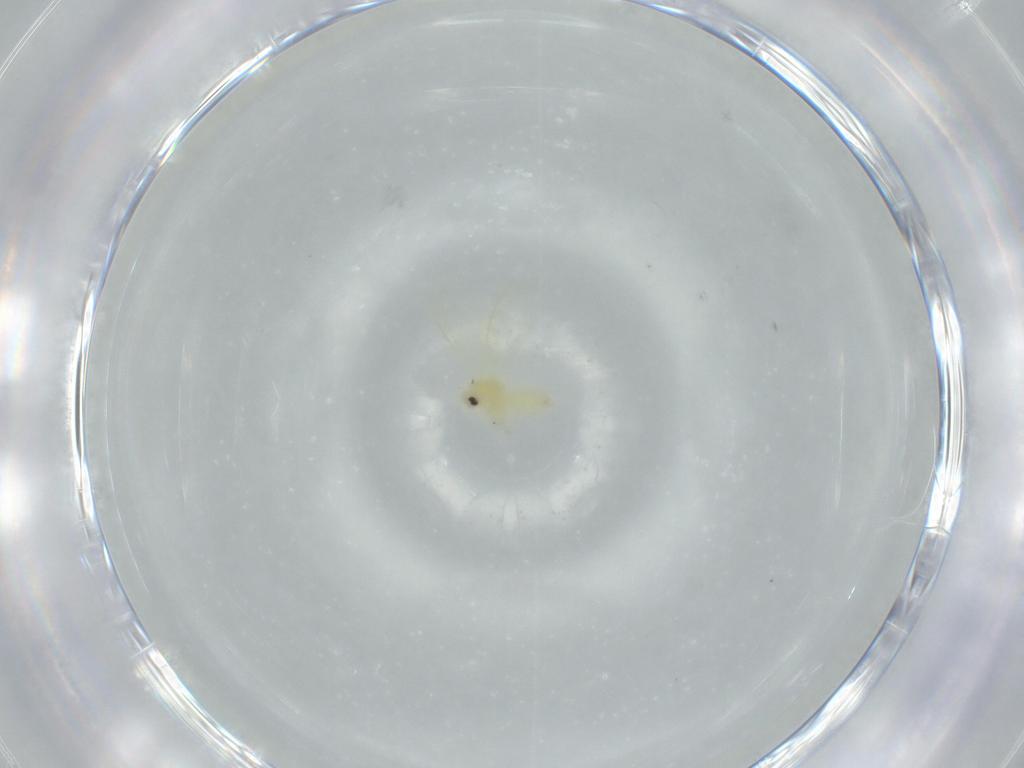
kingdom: Animalia
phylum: Arthropoda
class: Insecta
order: Hemiptera
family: Aleyrodidae
